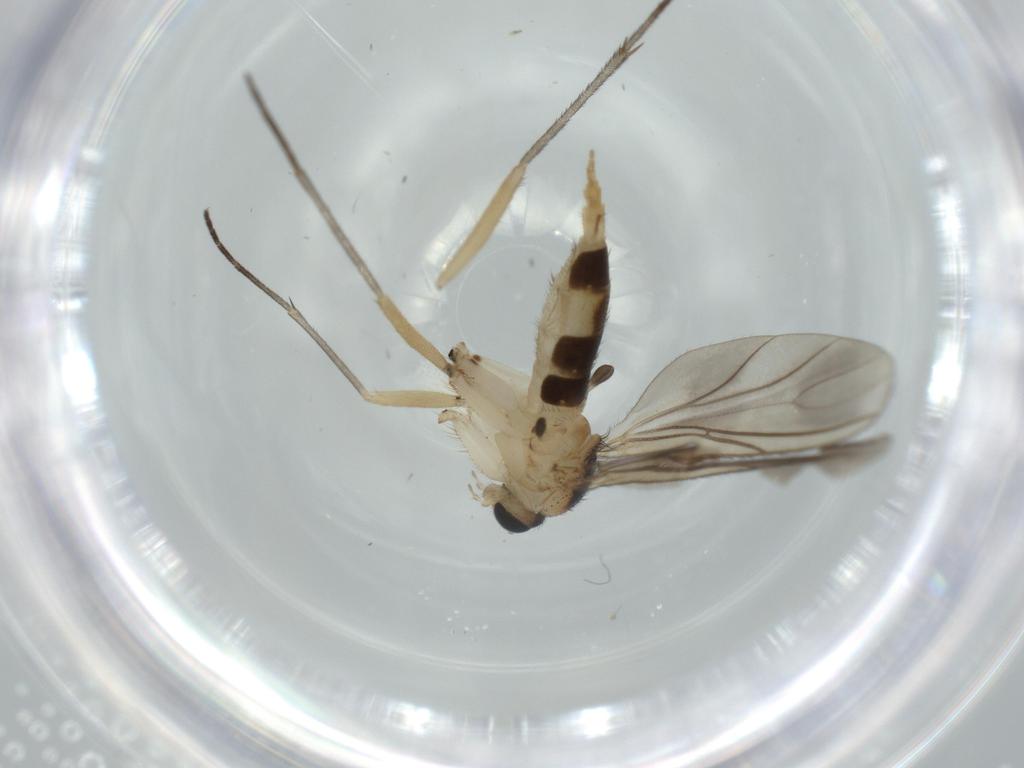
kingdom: Animalia
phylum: Arthropoda
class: Insecta
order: Diptera
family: Sciaridae
